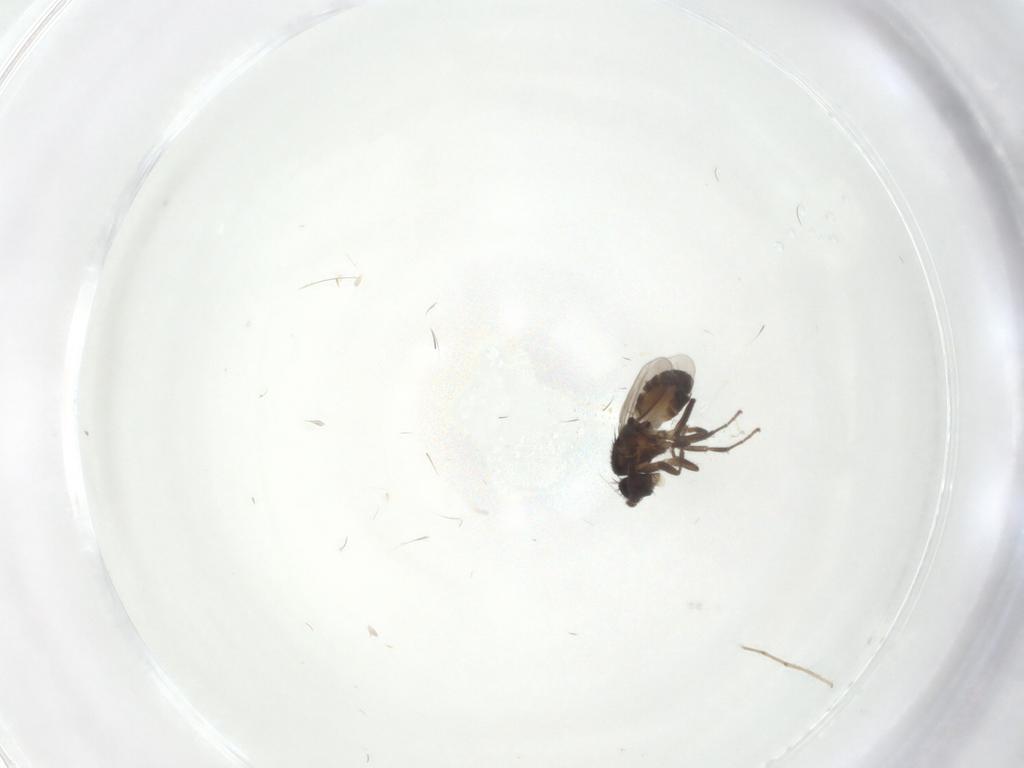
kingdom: Animalia
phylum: Arthropoda
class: Insecta
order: Diptera
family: Sphaeroceridae
